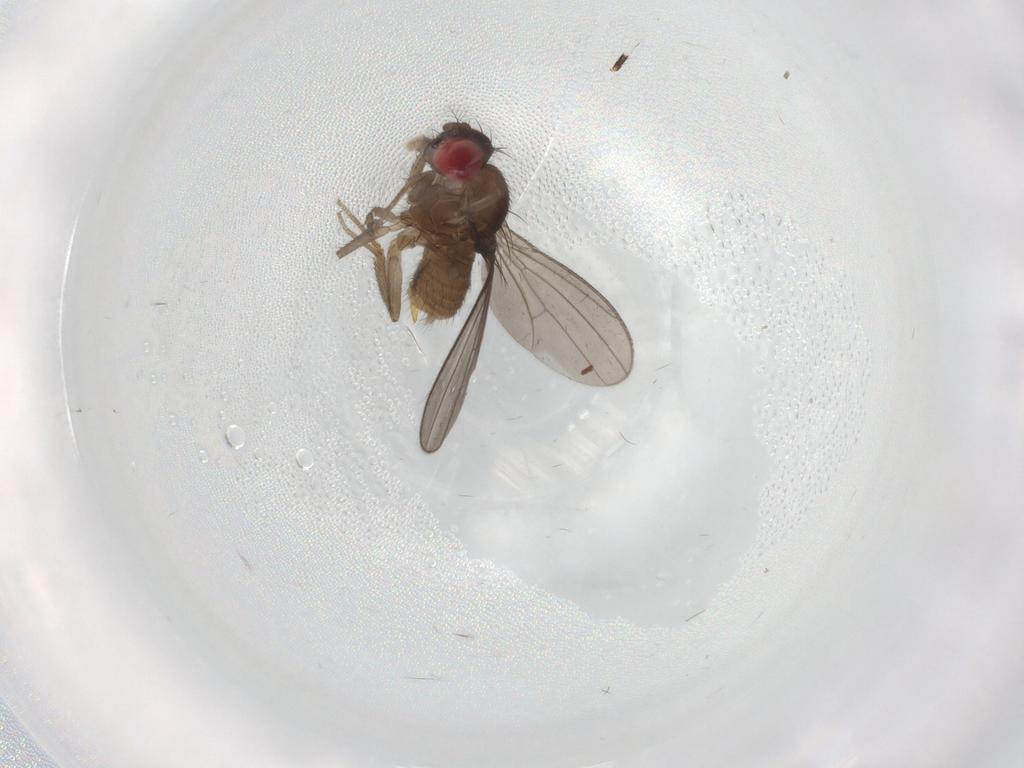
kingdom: Animalia
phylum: Arthropoda
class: Insecta
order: Diptera
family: Drosophilidae
